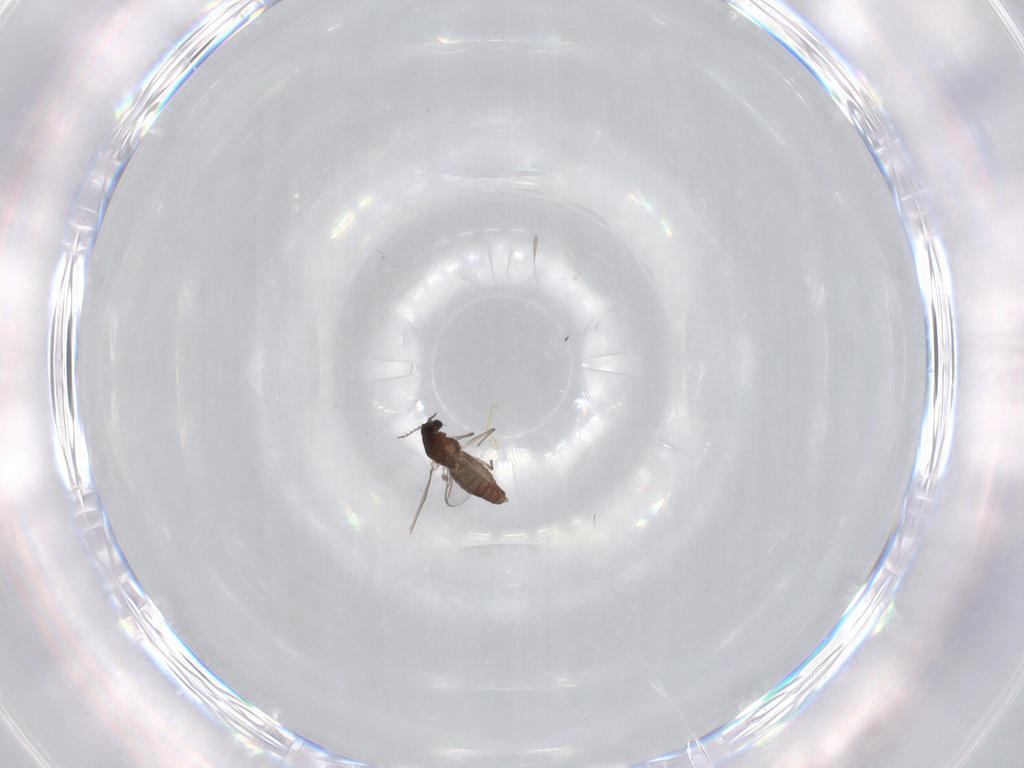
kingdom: Animalia
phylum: Arthropoda
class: Insecta
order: Diptera
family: Chironomidae
